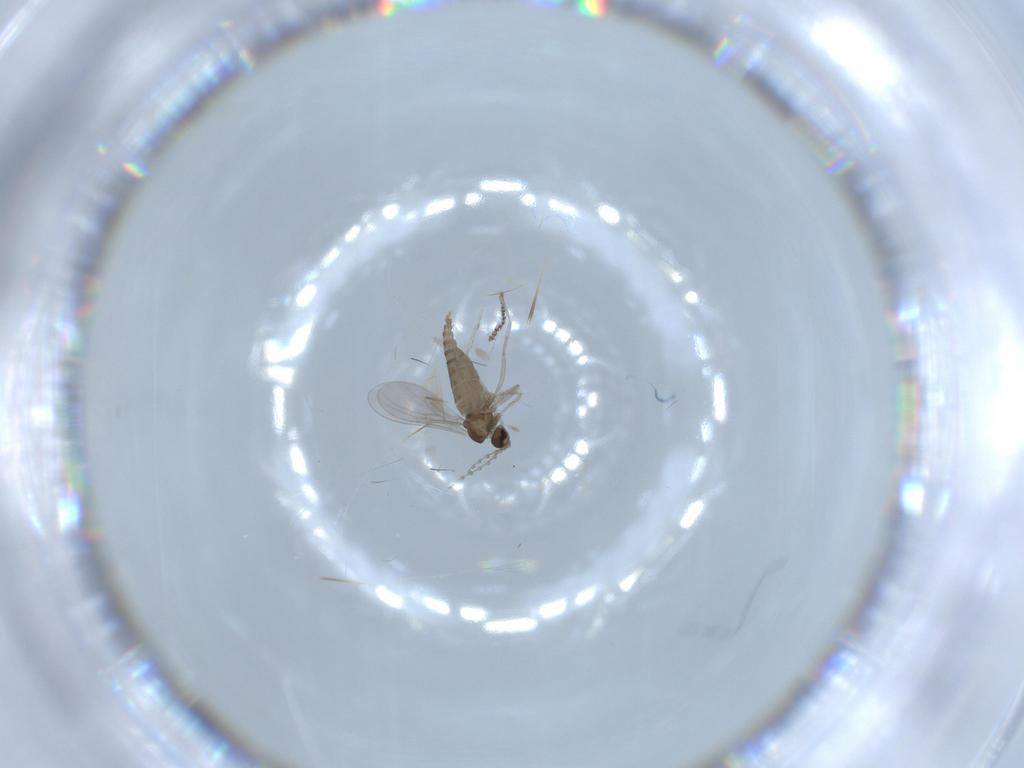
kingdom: Animalia
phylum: Arthropoda
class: Insecta
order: Diptera
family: Cecidomyiidae
